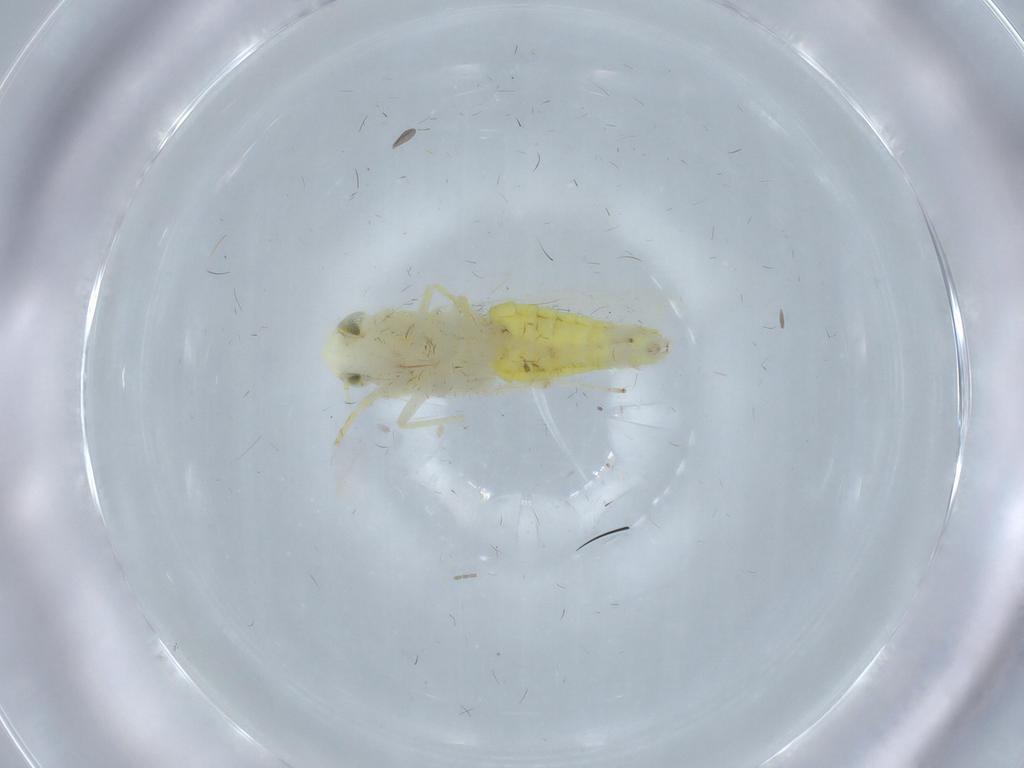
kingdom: Animalia
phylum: Arthropoda
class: Insecta
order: Hemiptera
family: Cicadellidae
